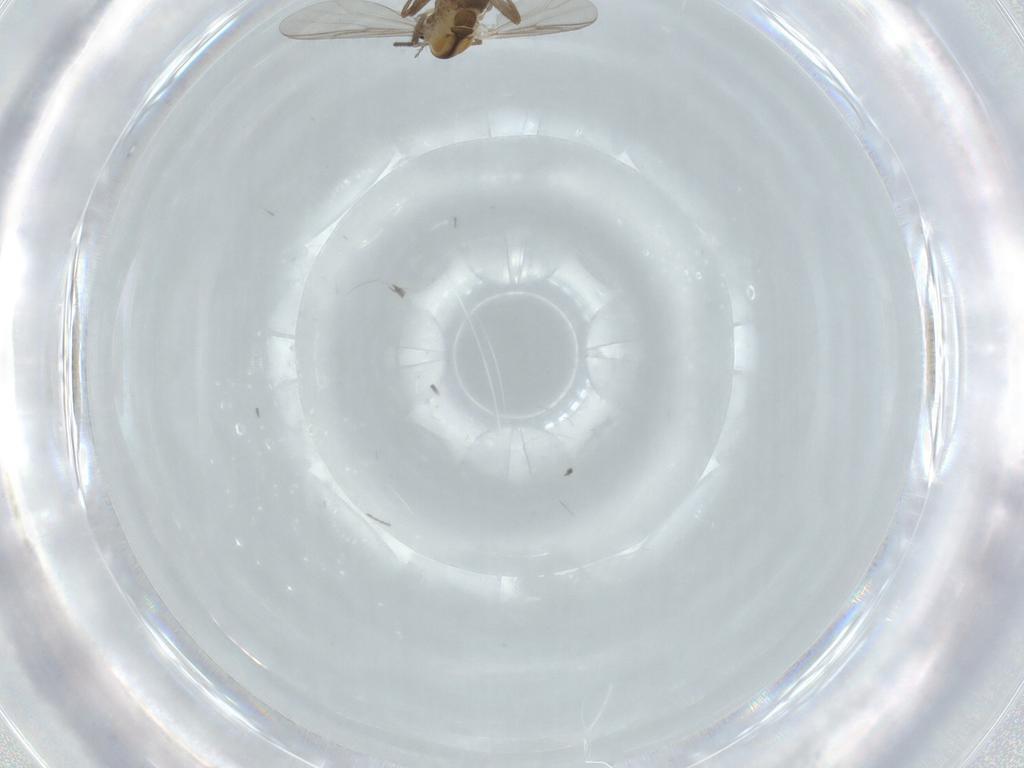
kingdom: Animalia
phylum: Arthropoda
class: Insecta
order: Diptera
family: Chironomidae
